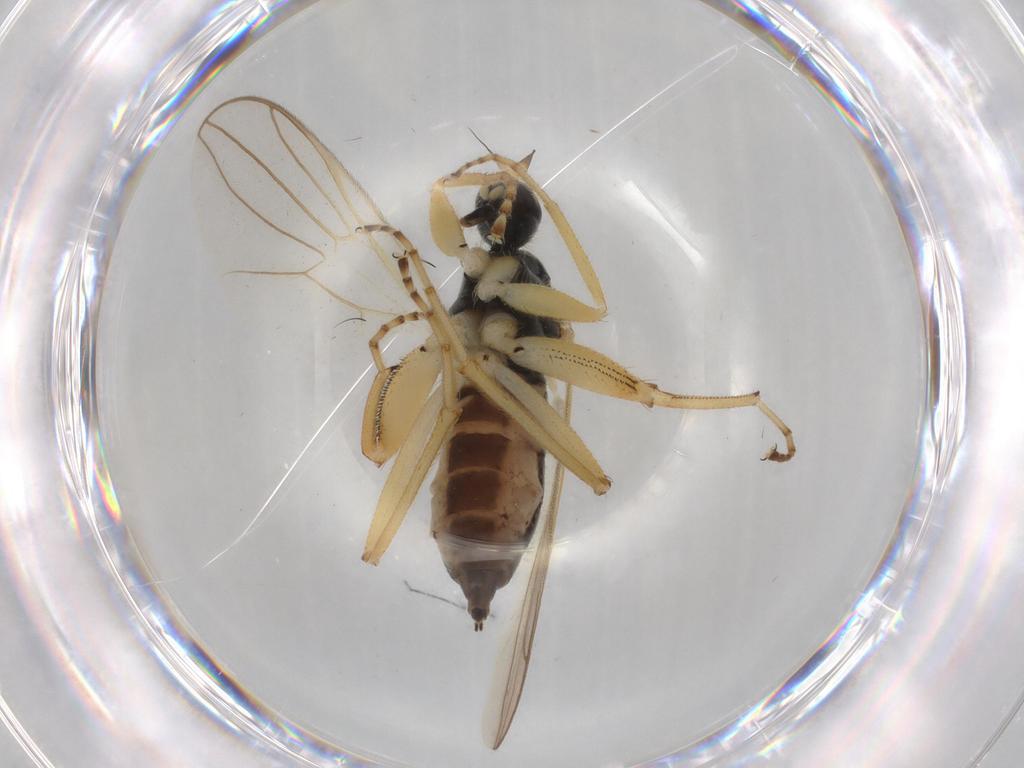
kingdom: Animalia
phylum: Arthropoda
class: Insecta
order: Diptera
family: Hybotidae
